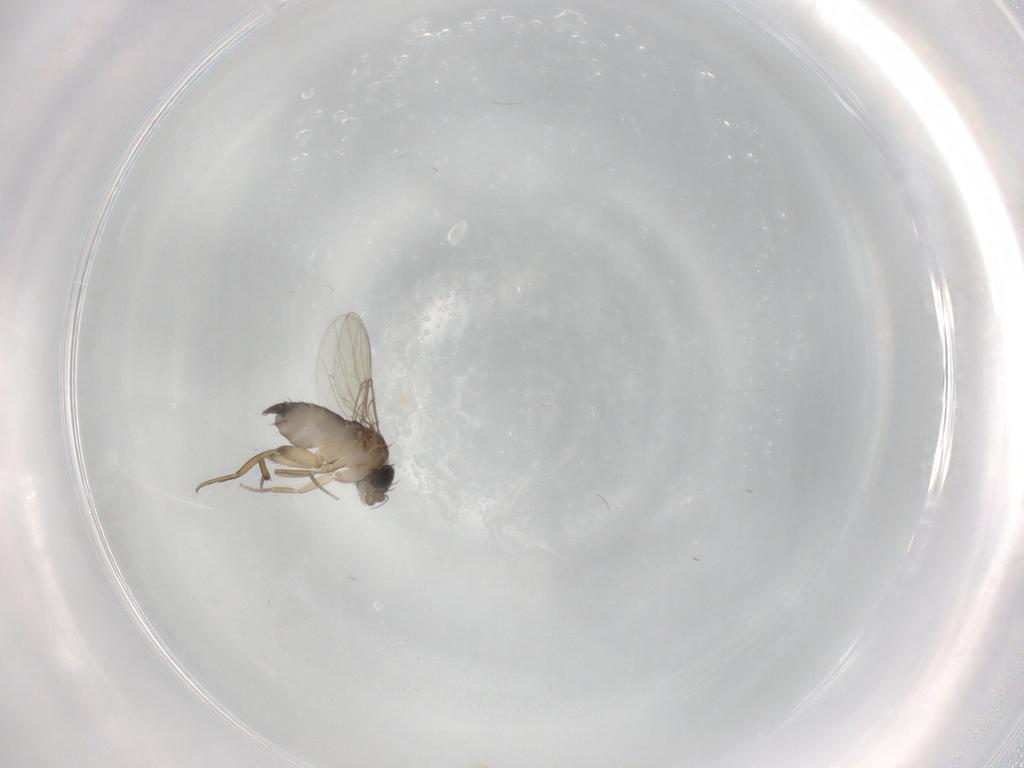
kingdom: Animalia
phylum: Arthropoda
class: Insecta
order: Diptera
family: Phoridae
